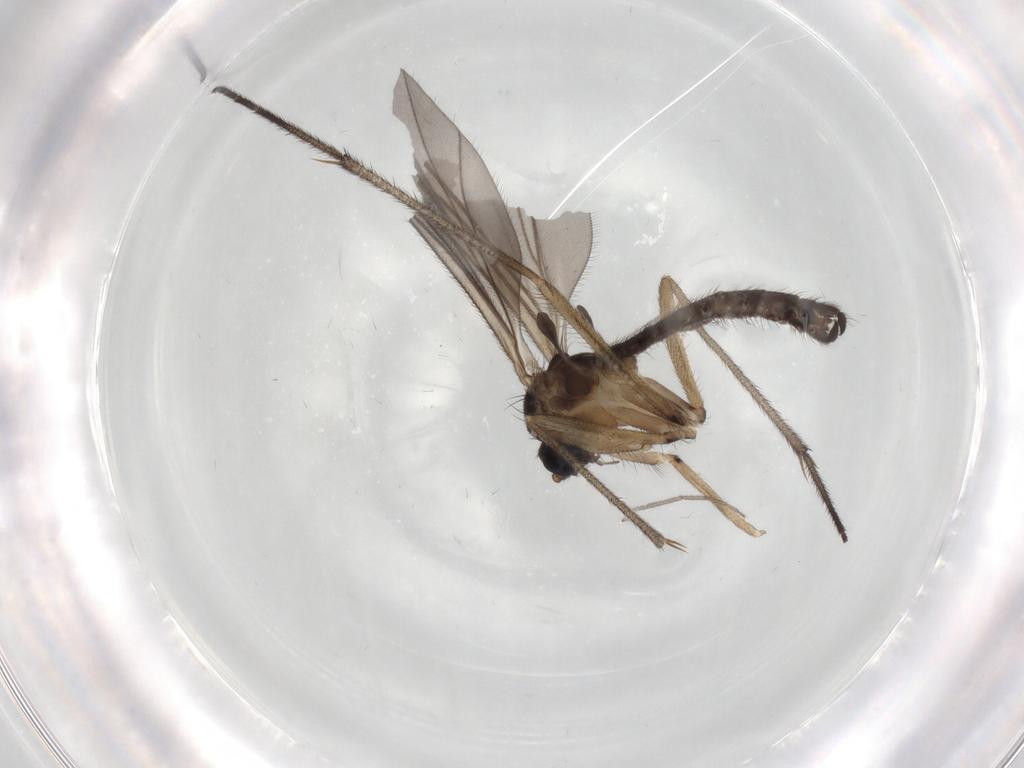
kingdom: Animalia
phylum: Arthropoda
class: Insecta
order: Diptera
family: Sciaridae
